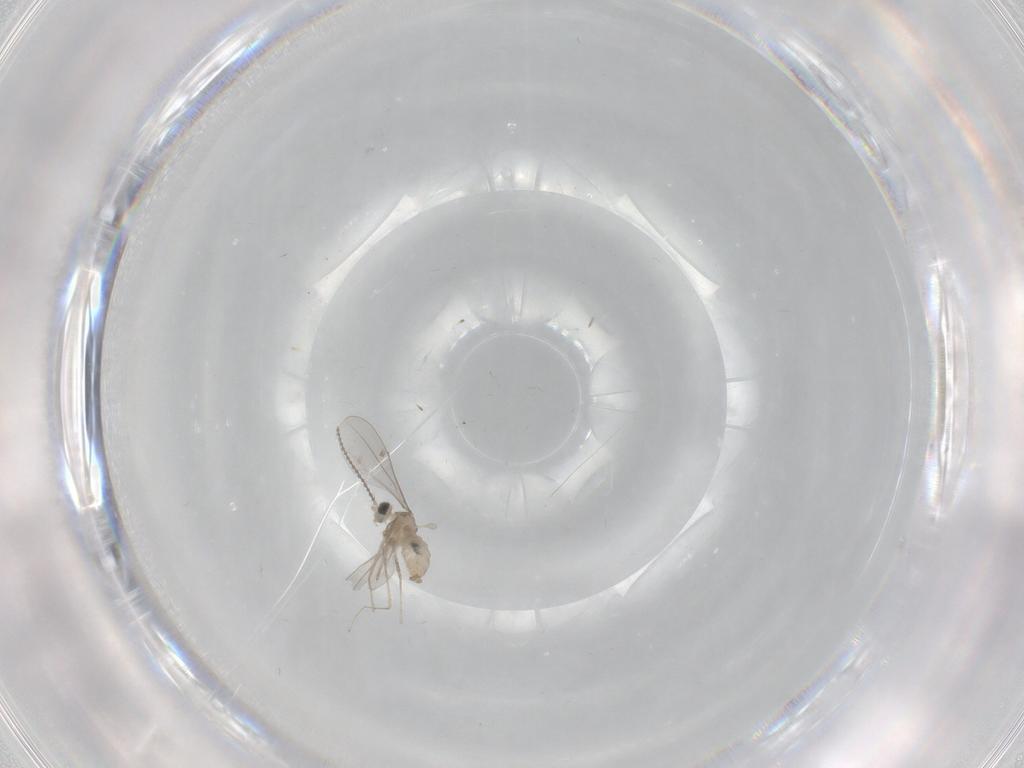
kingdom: Animalia
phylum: Arthropoda
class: Insecta
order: Diptera
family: Cecidomyiidae
